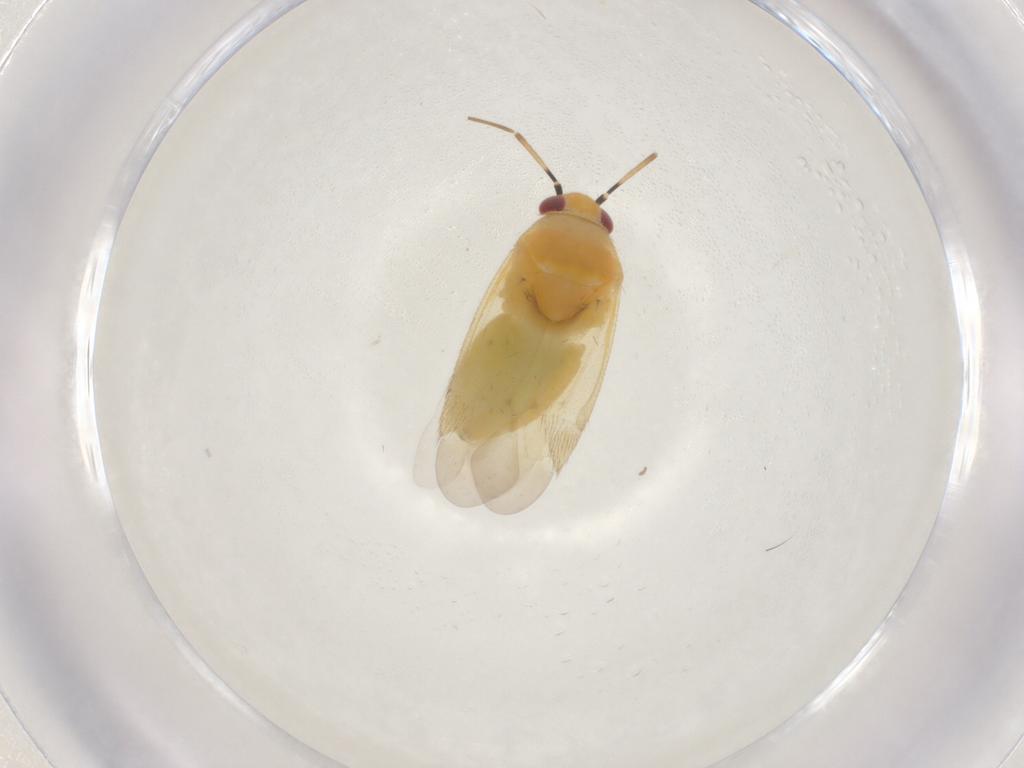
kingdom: Animalia
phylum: Arthropoda
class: Insecta
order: Hemiptera
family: Miridae
